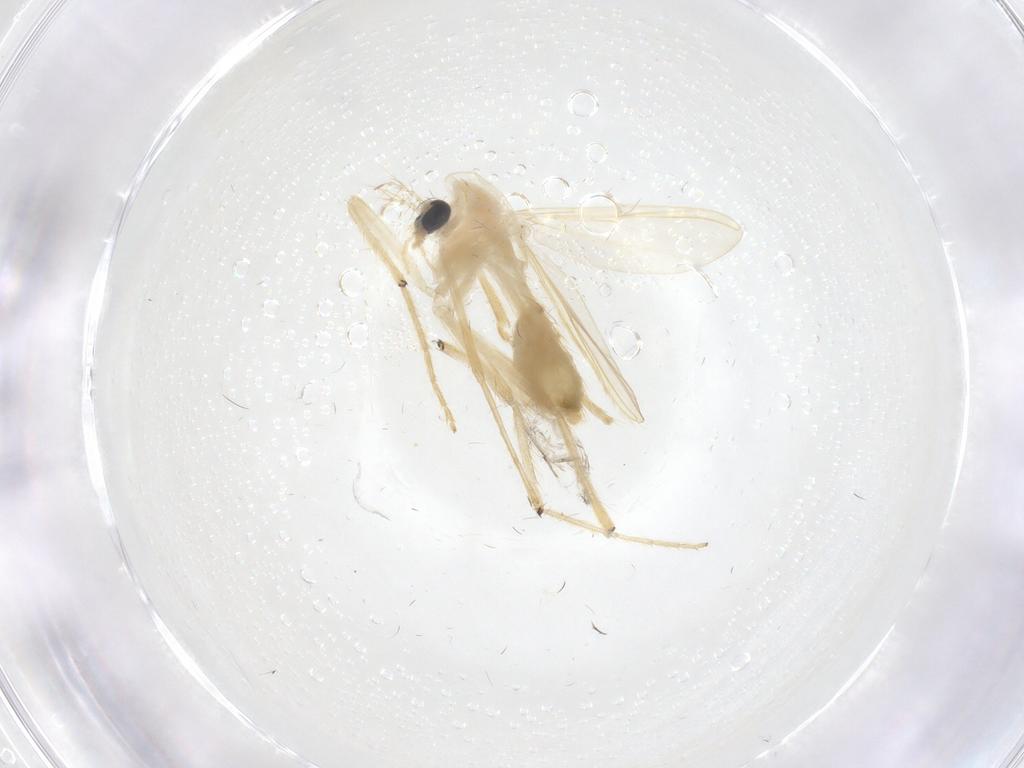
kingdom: Animalia
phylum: Arthropoda
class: Insecta
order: Diptera
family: Chironomidae
